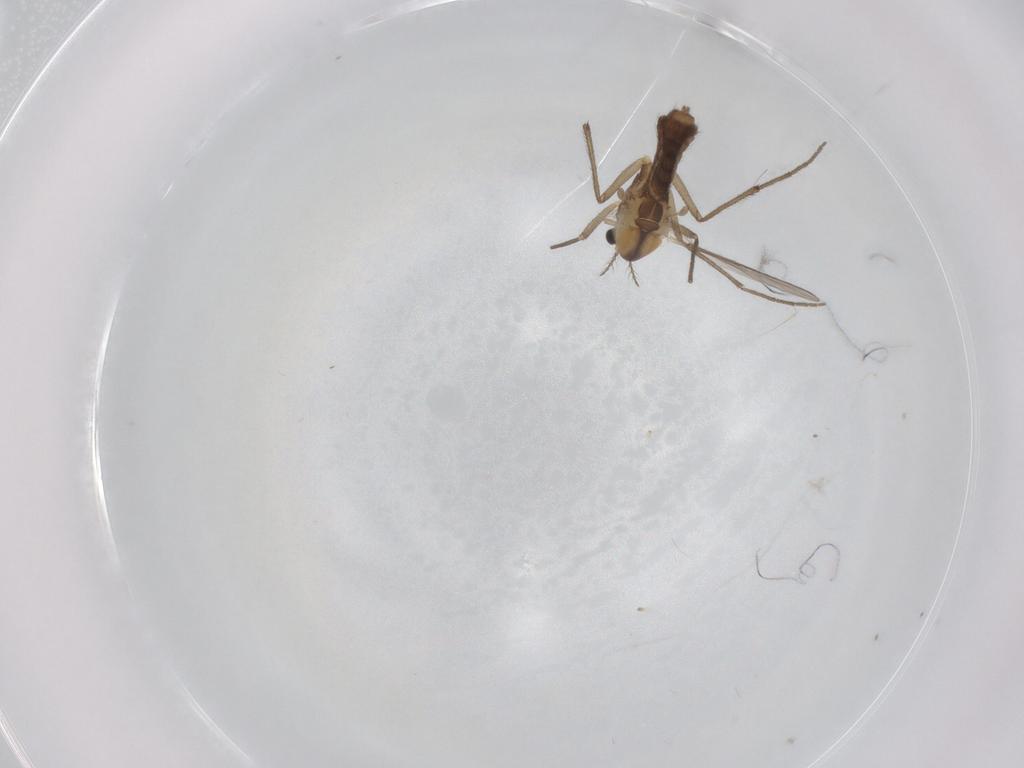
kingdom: Animalia
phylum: Arthropoda
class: Insecta
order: Diptera
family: Chironomidae
